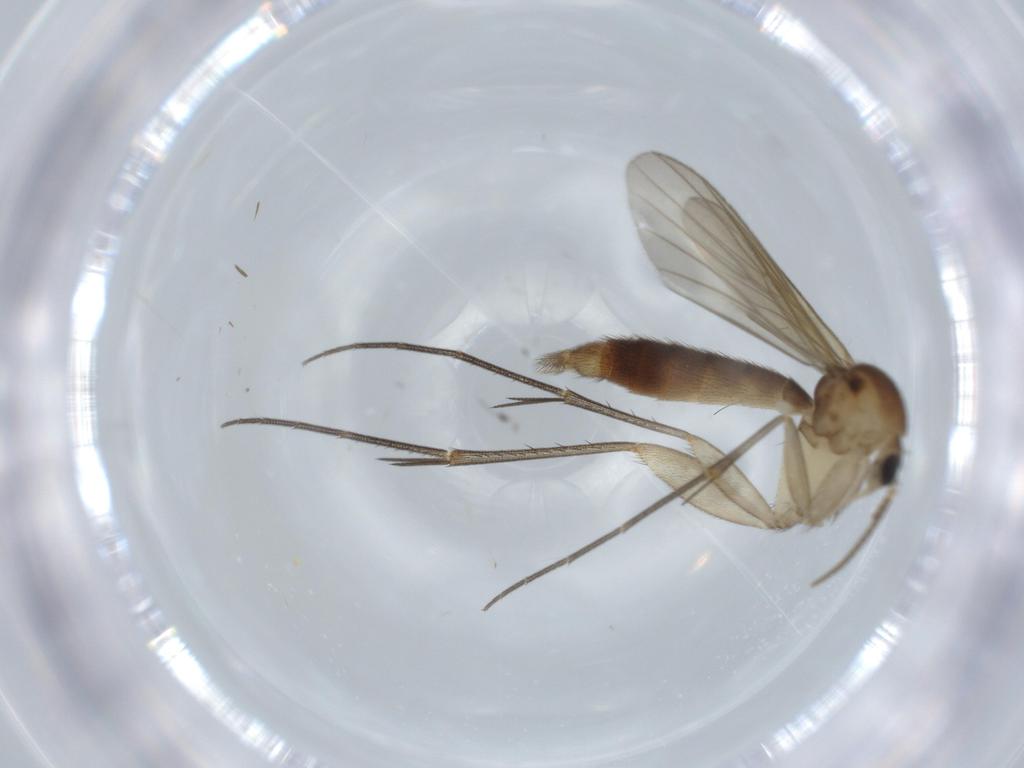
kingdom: Animalia
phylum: Arthropoda
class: Insecta
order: Diptera
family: Mycetophilidae
